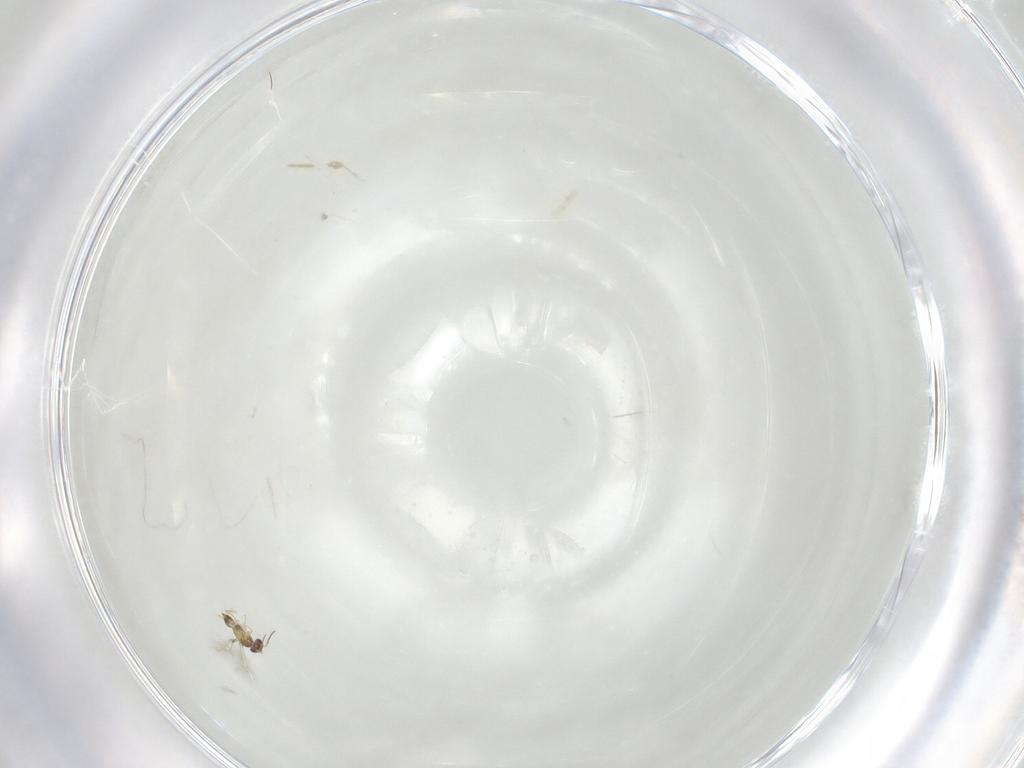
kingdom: Animalia
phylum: Arthropoda
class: Insecta
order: Hymenoptera
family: Mymaridae
